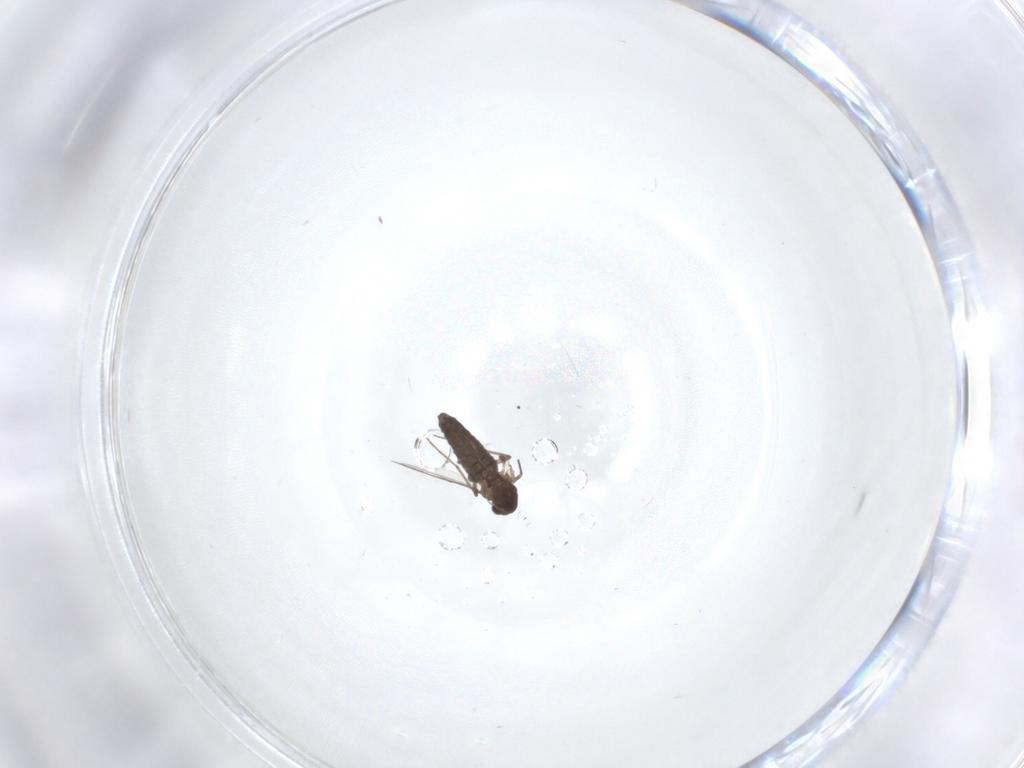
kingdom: Animalia
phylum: Arthropoda
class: Insecta
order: Diptera
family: Chironomidae
